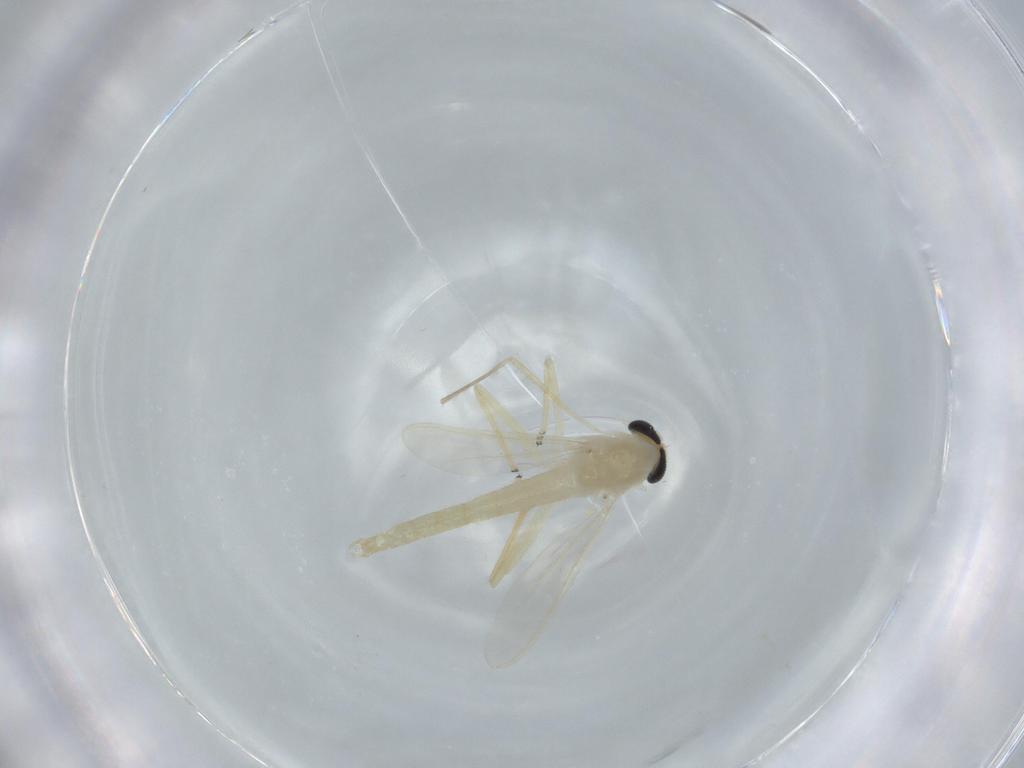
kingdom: Animalia
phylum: Arthropoda
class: Insecta
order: Diptera
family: Chironomidae
